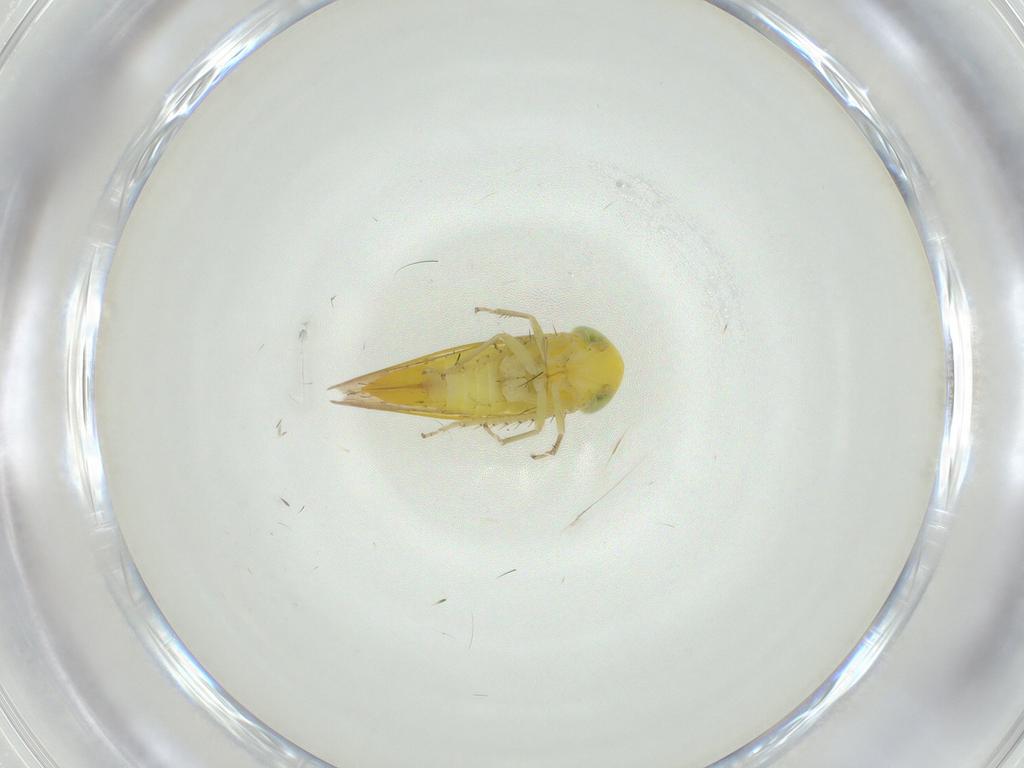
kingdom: Animalia
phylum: Arthropoda
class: Insecta
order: Hemiptera
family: Cicadellidae
